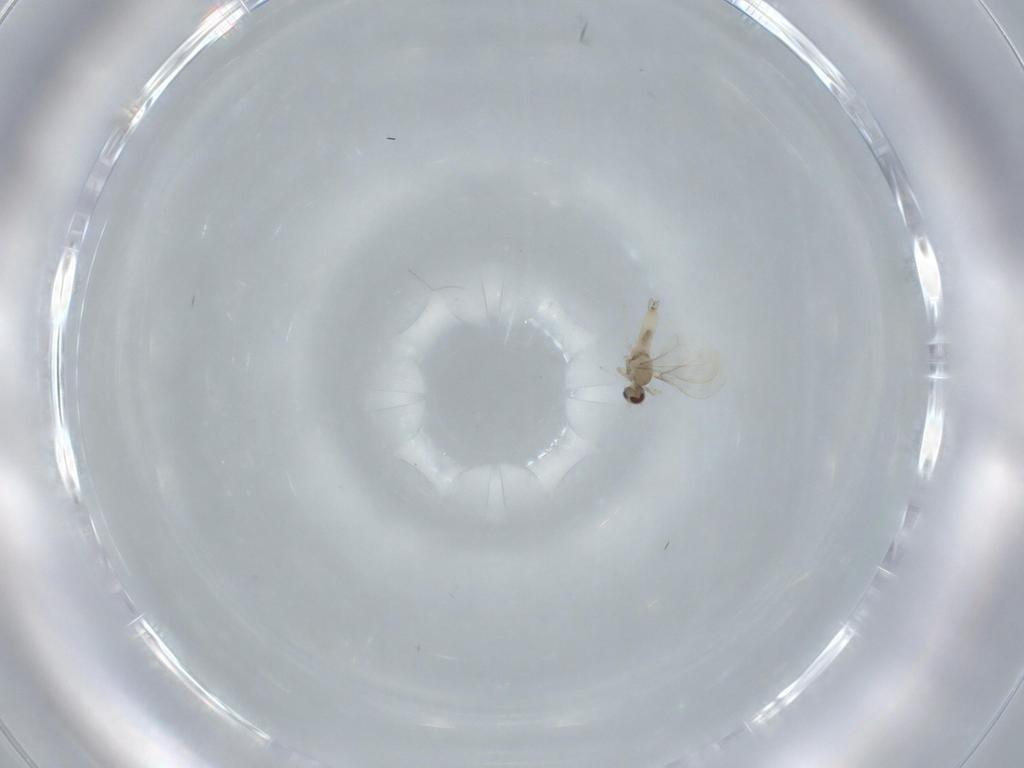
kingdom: Animalia
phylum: Arthropoda
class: Insecta
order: Diptera
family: Cecidomyiidae
